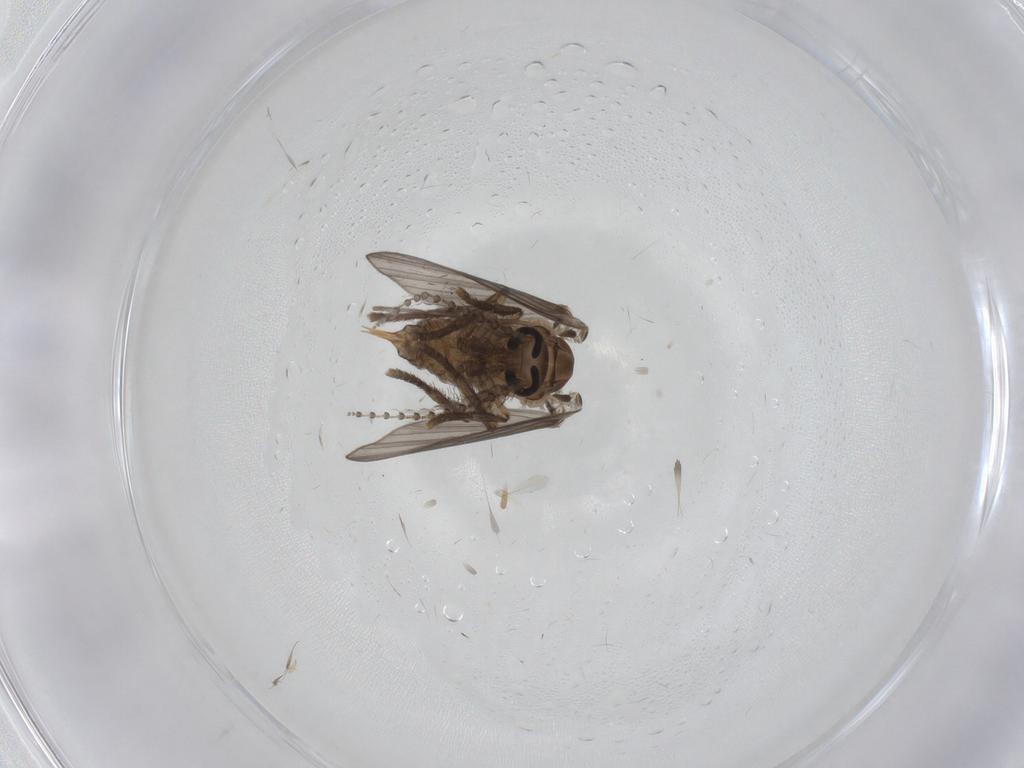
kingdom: Animalia
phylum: Arthropoda
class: Insecta
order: Diptera
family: Psychodidae
